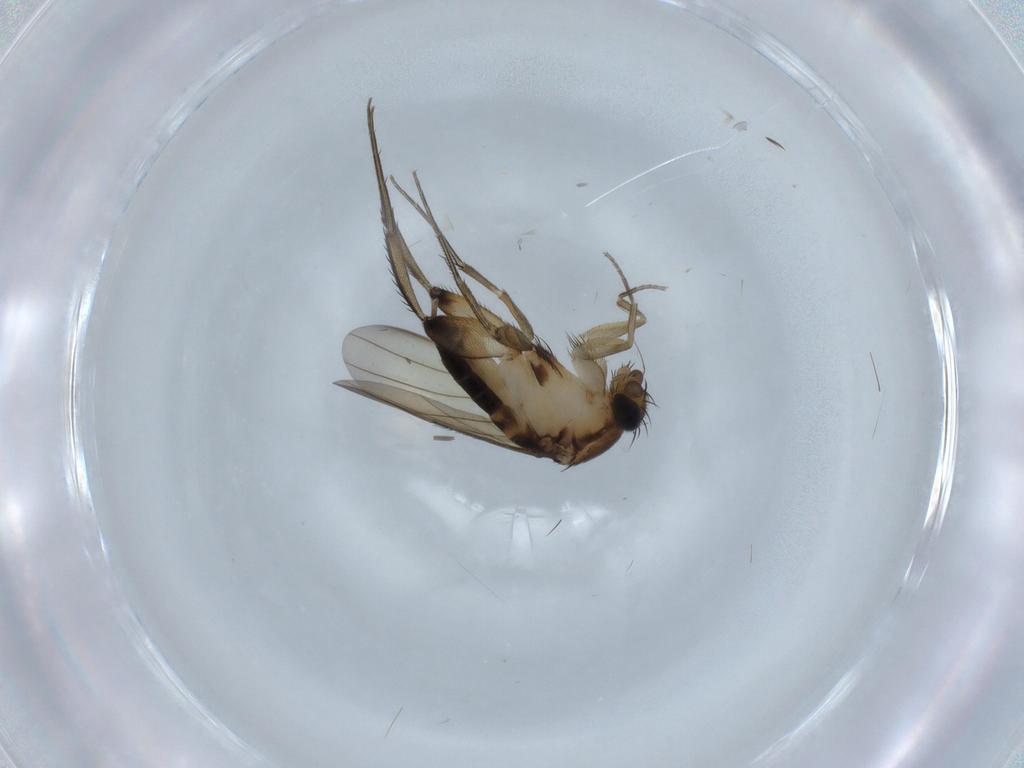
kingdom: Animalia
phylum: Arthropoda
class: Insecta
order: Diptera
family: Phoridae
